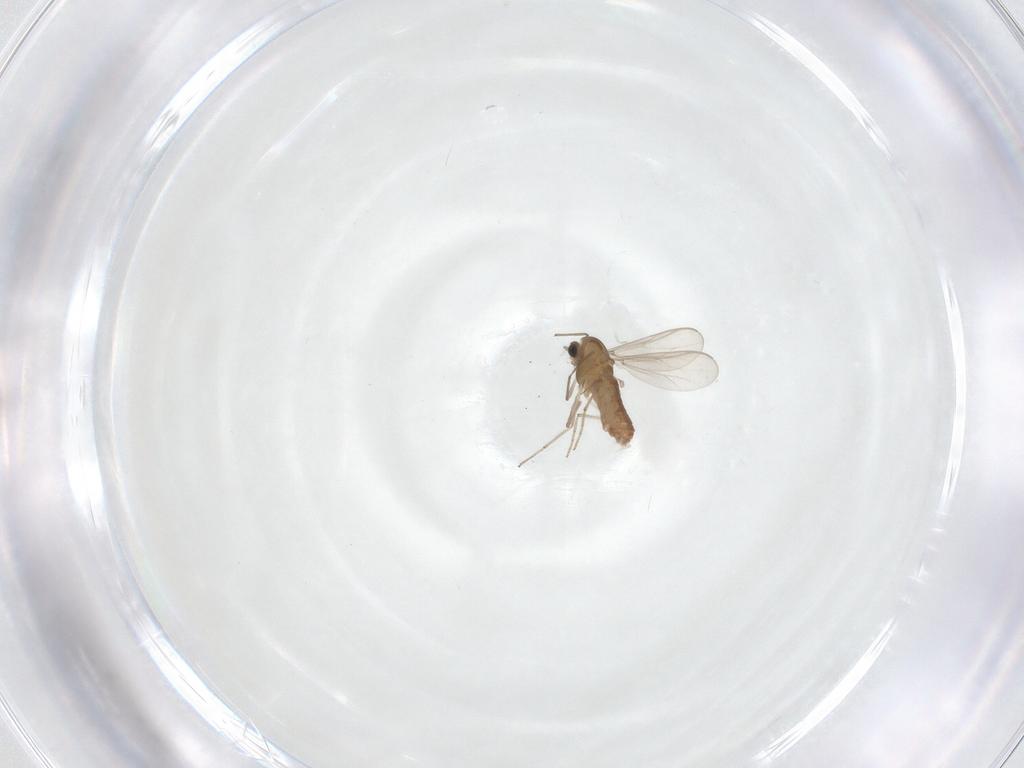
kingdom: Animalia
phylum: Arthropoda
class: Insecta
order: Diptera
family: Chironomidae
